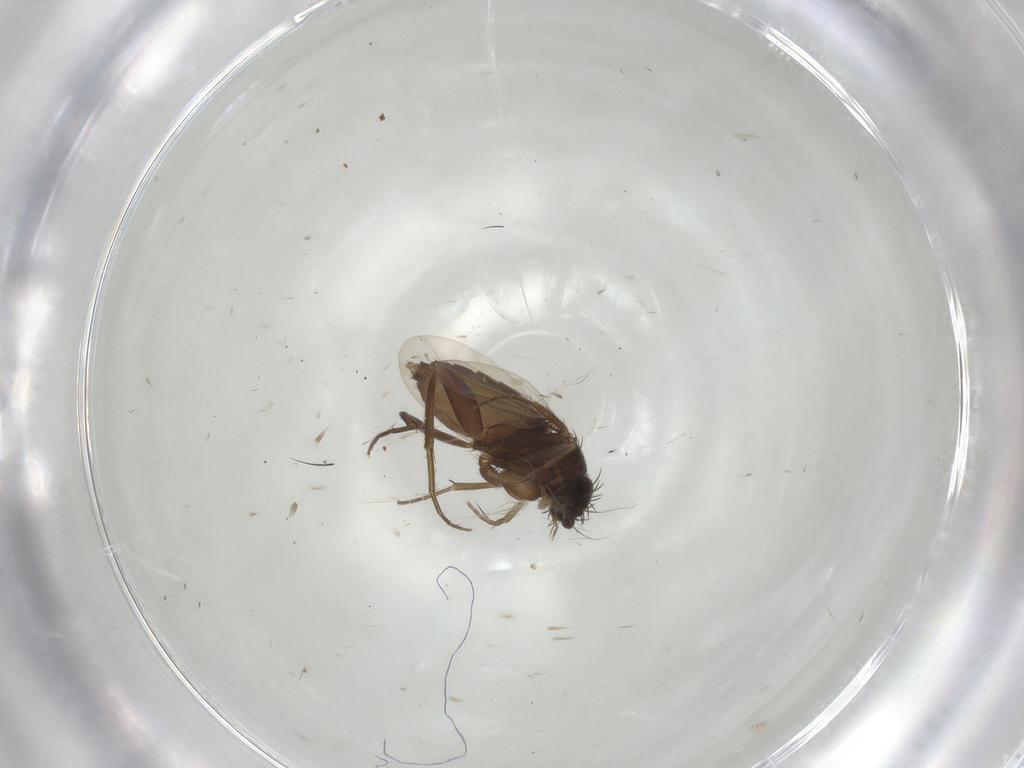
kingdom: Animalia
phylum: Arthropoda
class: Insecta
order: Diptera
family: Phoridae
